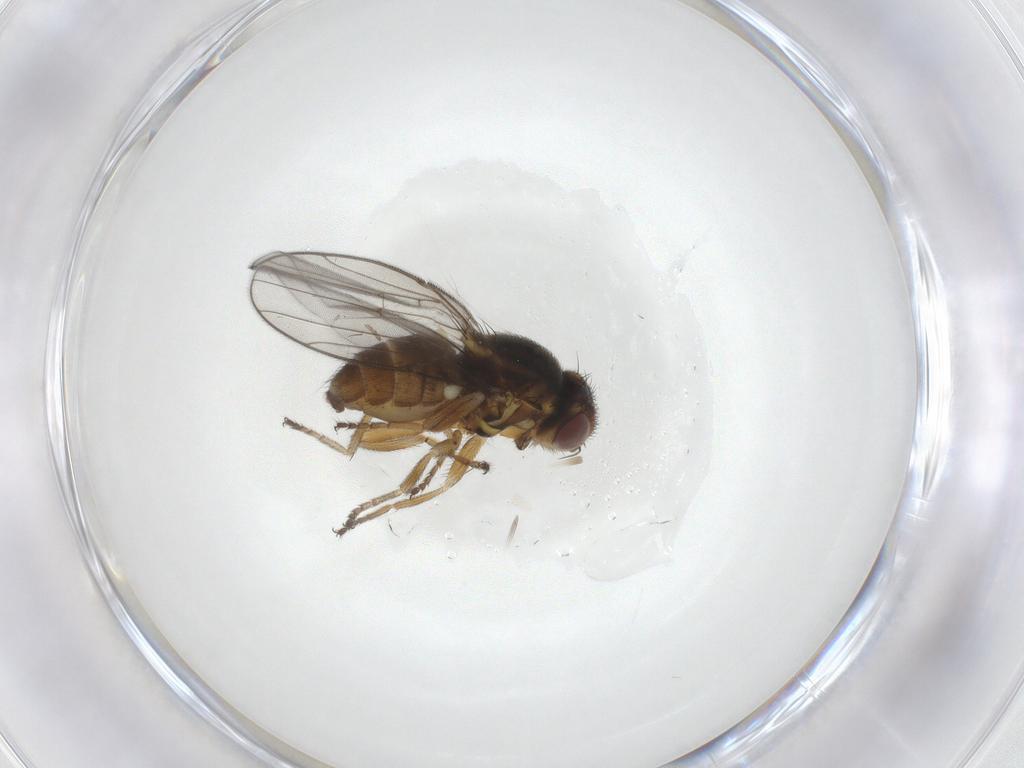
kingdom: Animalia
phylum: Arthropoda
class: Insecta
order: Diptera
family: Chloropidae
